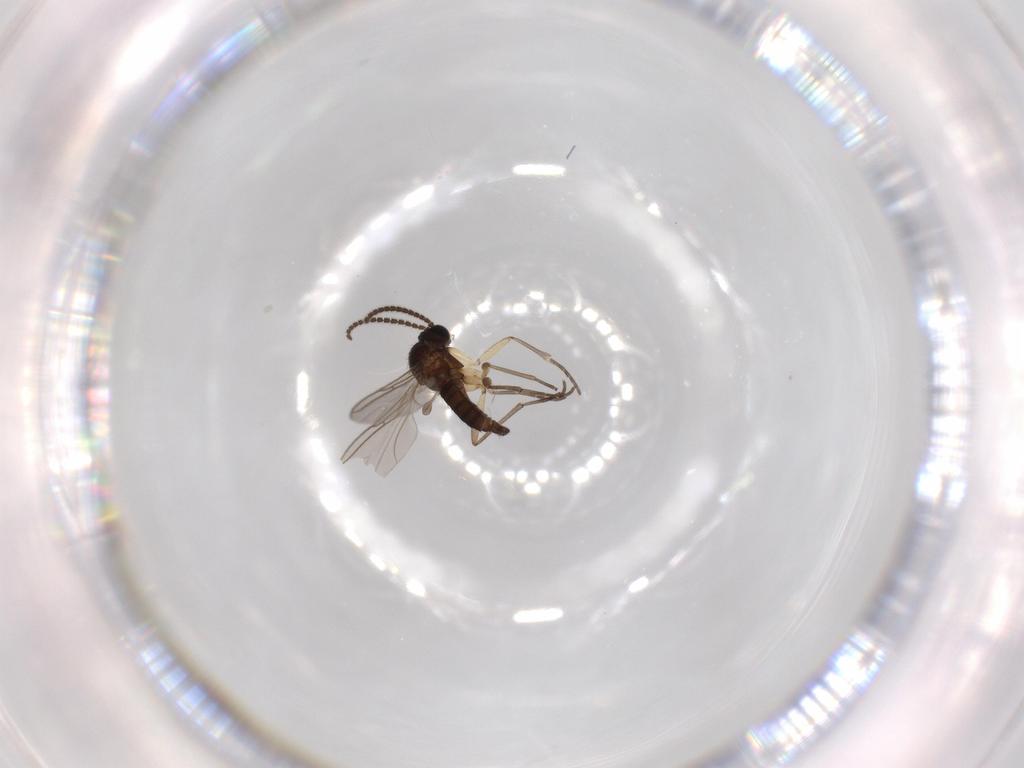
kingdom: Animalia
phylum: Arthropoda
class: Insecta
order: Diptera
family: Sciaridae
